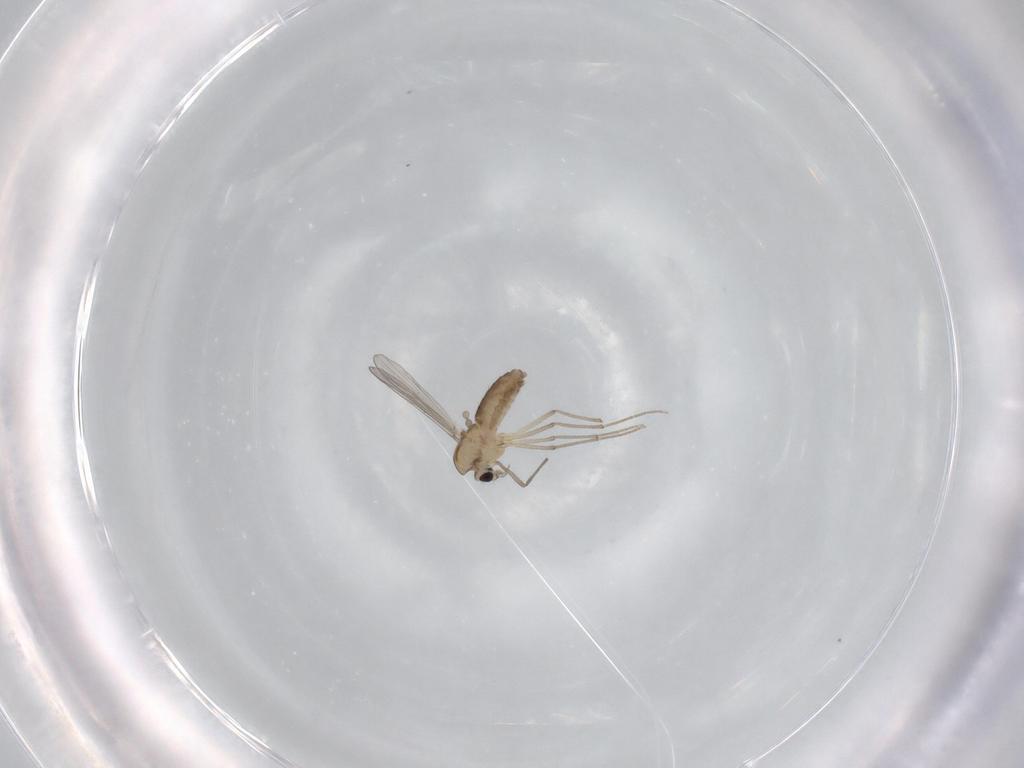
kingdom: Animalia
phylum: Arthropoda
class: Insecta
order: Diptera
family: Chironomidae
